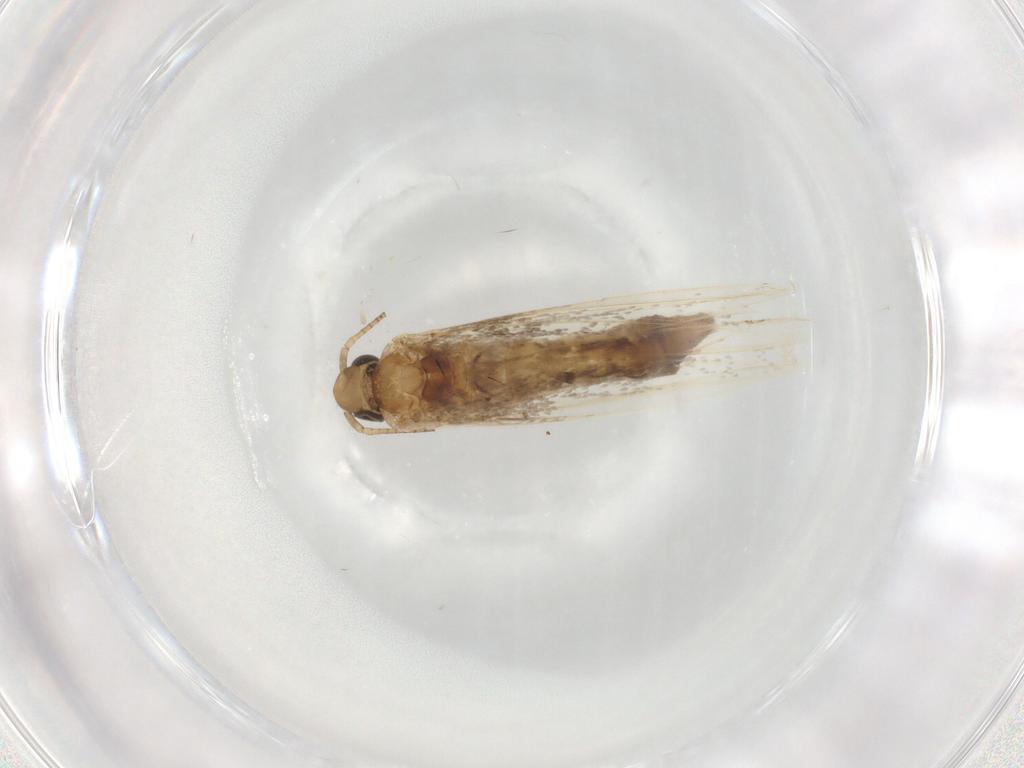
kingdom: Animalia
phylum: Arthropoda
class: Insecta
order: Lepidoptera
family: Gracillariidae
